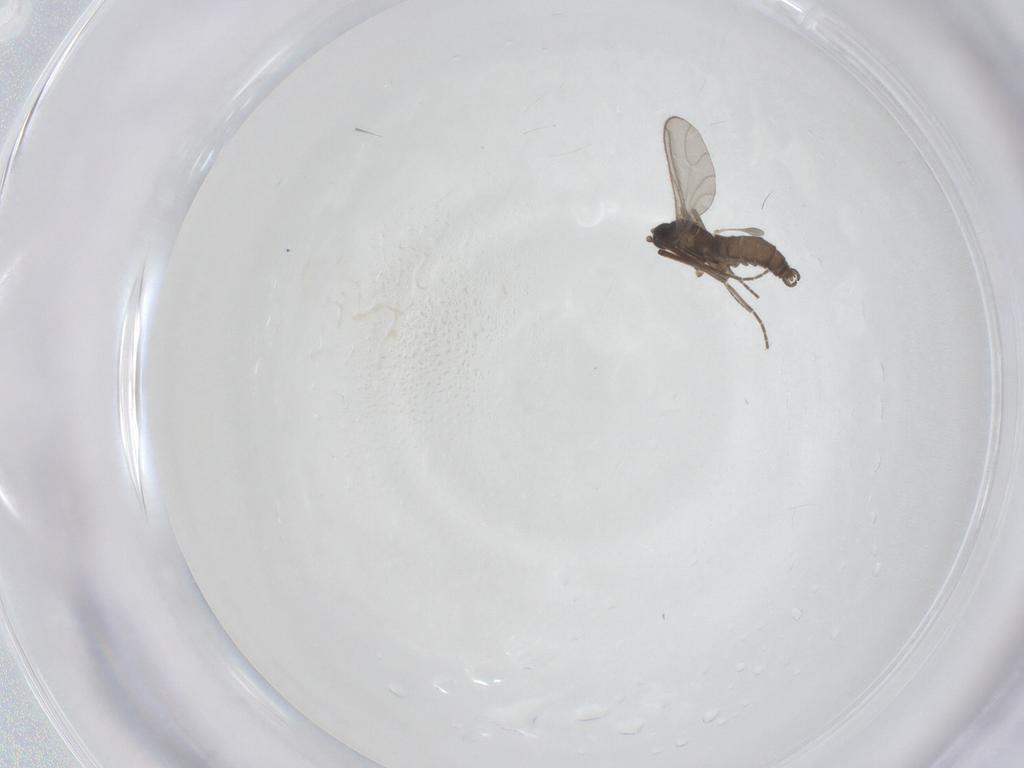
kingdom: Animalia
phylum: Arthropoda
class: Insecta
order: Diptera
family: Sciaridae
